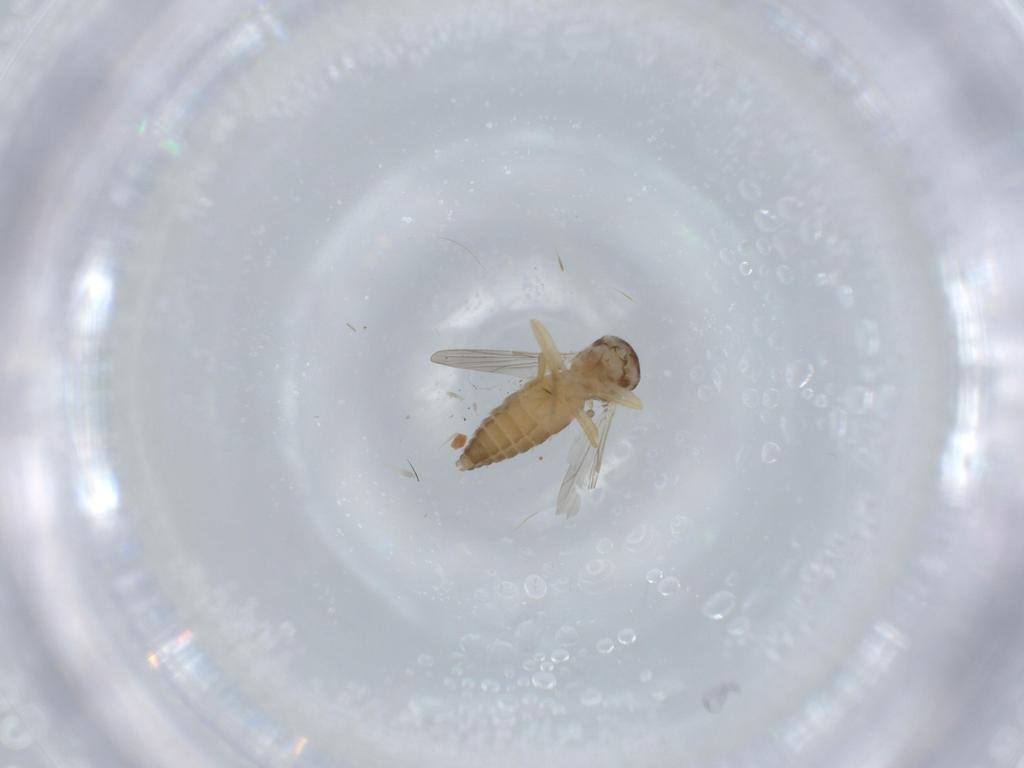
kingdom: Animalia
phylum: Arthropoda
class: Insecta
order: Diptera
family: Ceratopogonidae
